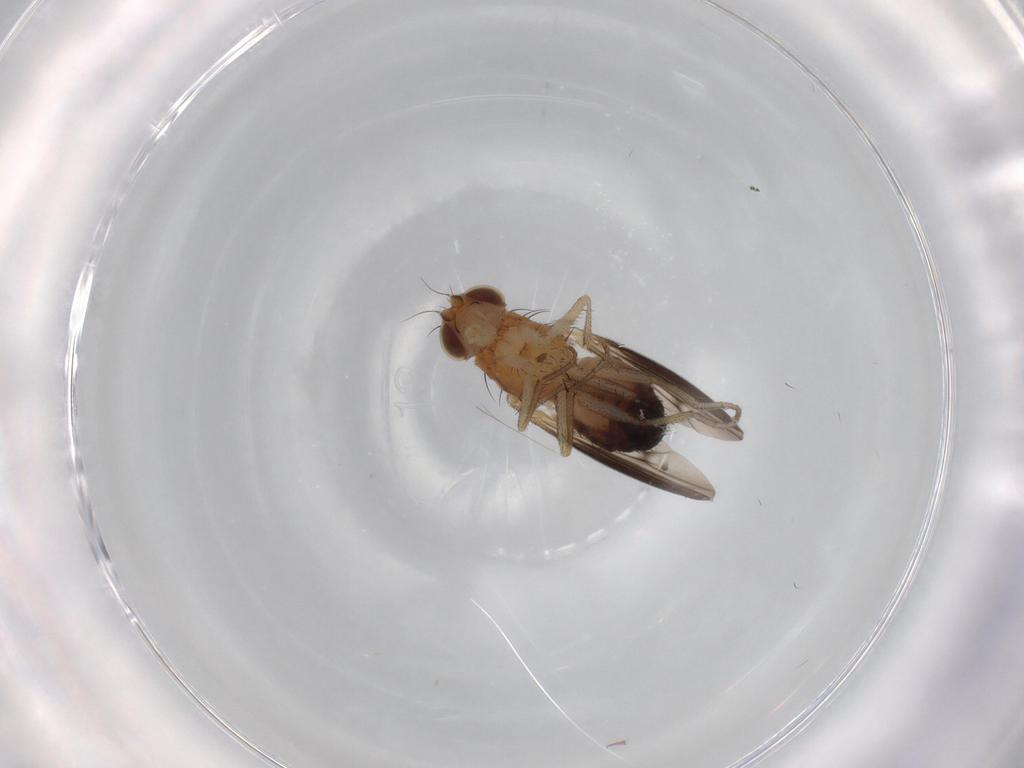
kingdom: Animalia
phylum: Arthropoda
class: Insecta
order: Diptera
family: Heleomyzidae
